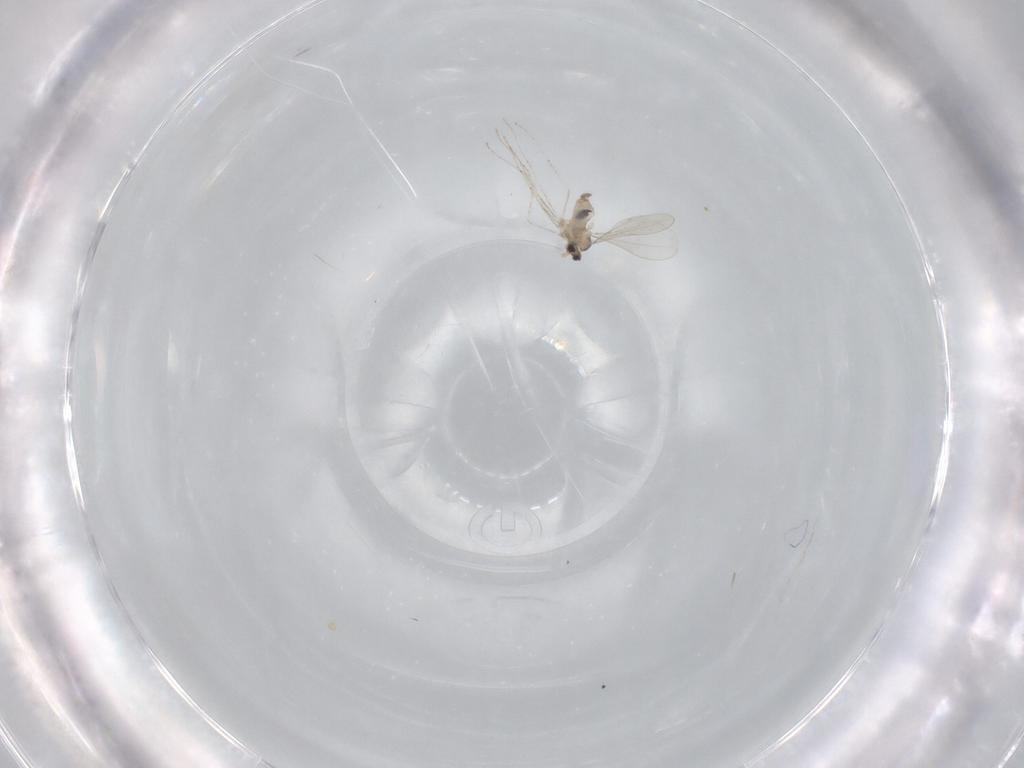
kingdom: Animalia
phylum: Arthropoda
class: Insecta
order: Diptera
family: Cecidomyiidae
